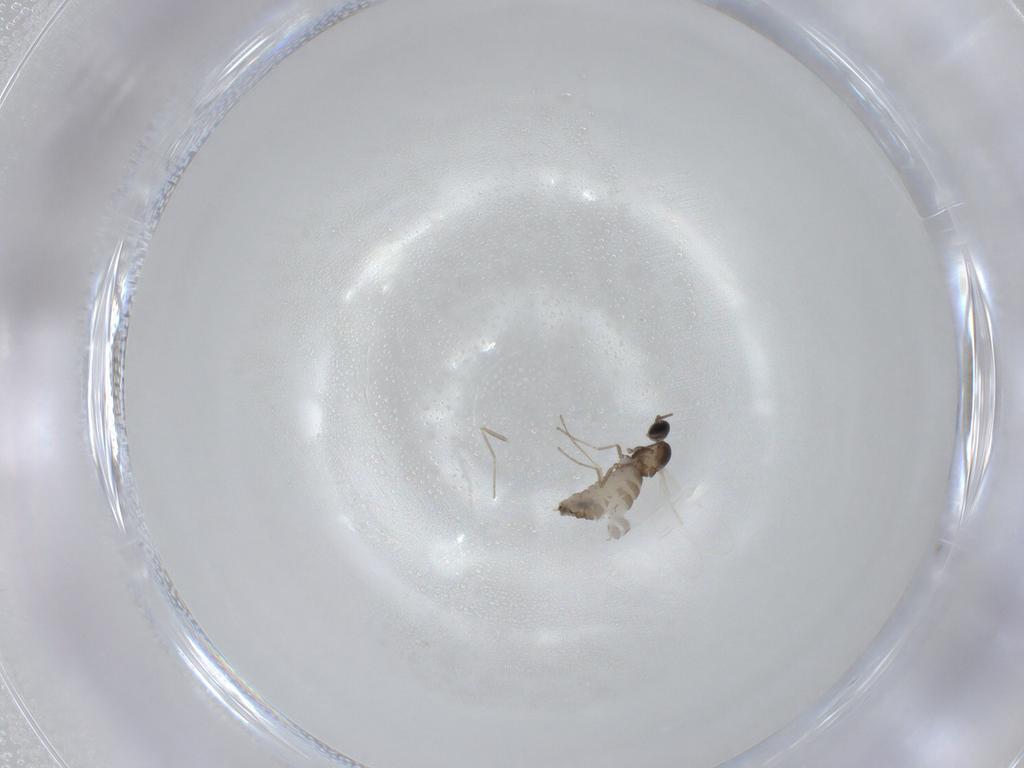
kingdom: Animalia
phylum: Arthropoda
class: Insecta
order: Diptera
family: Cecidomyiidae
